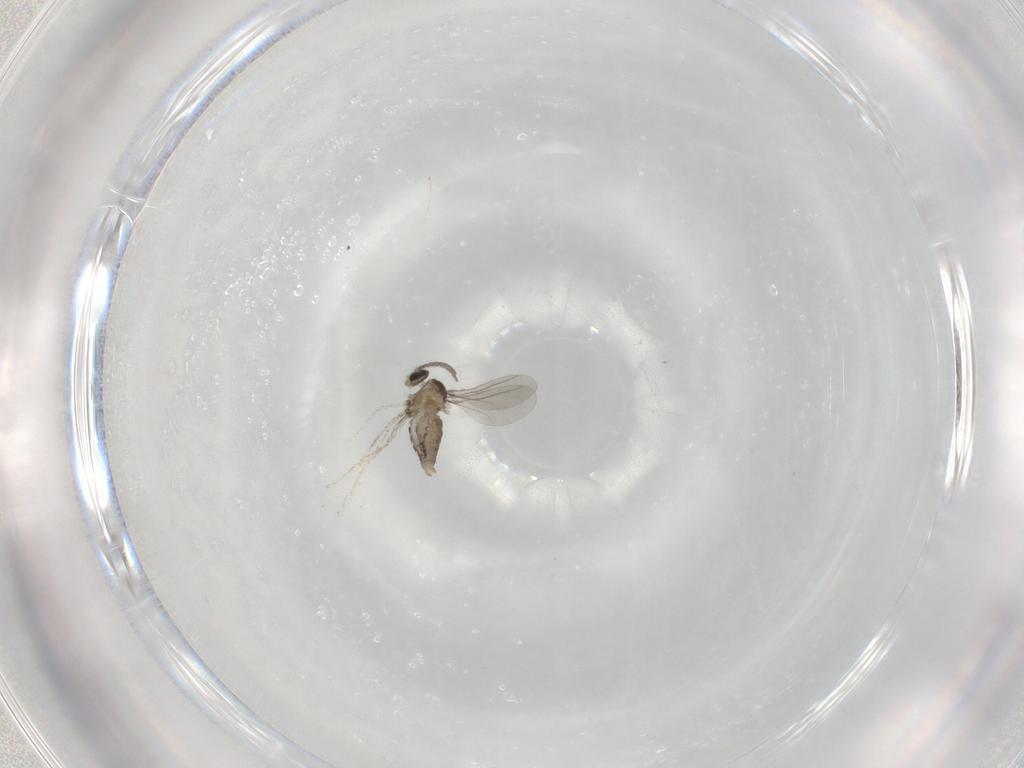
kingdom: Animalia
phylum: Arthropoda
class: Insecta
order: Diptera
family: Cecidomyiidae
